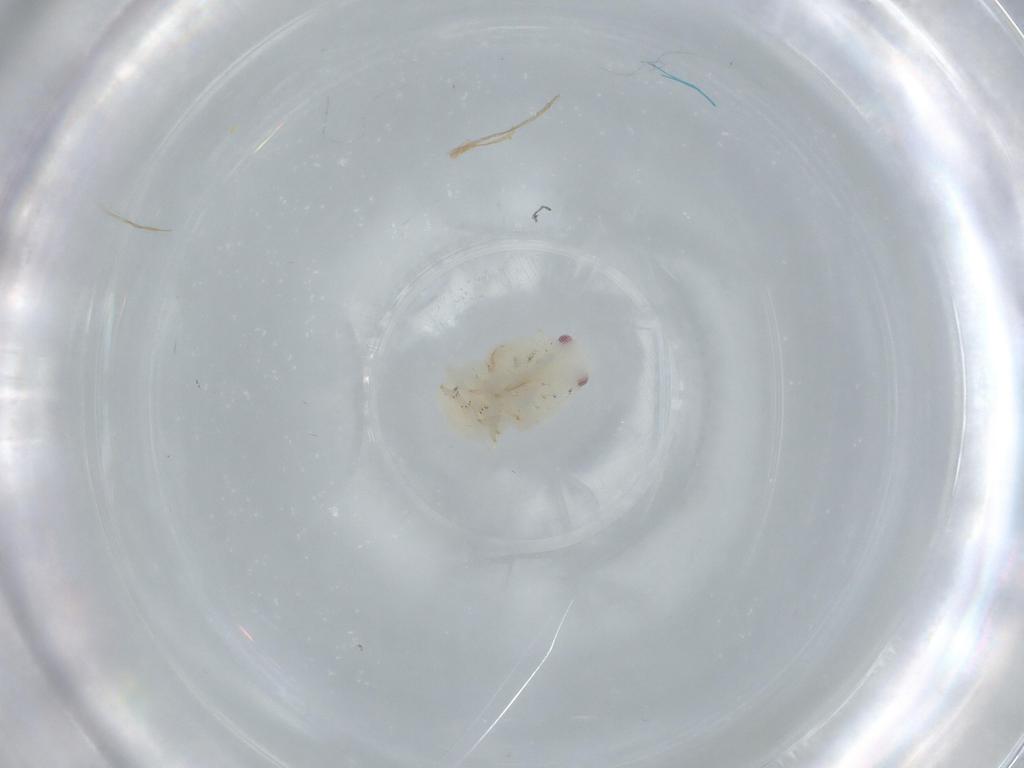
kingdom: Animalia
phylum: Arthropoda
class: Insecta
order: Hemiptera
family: Flatidae
